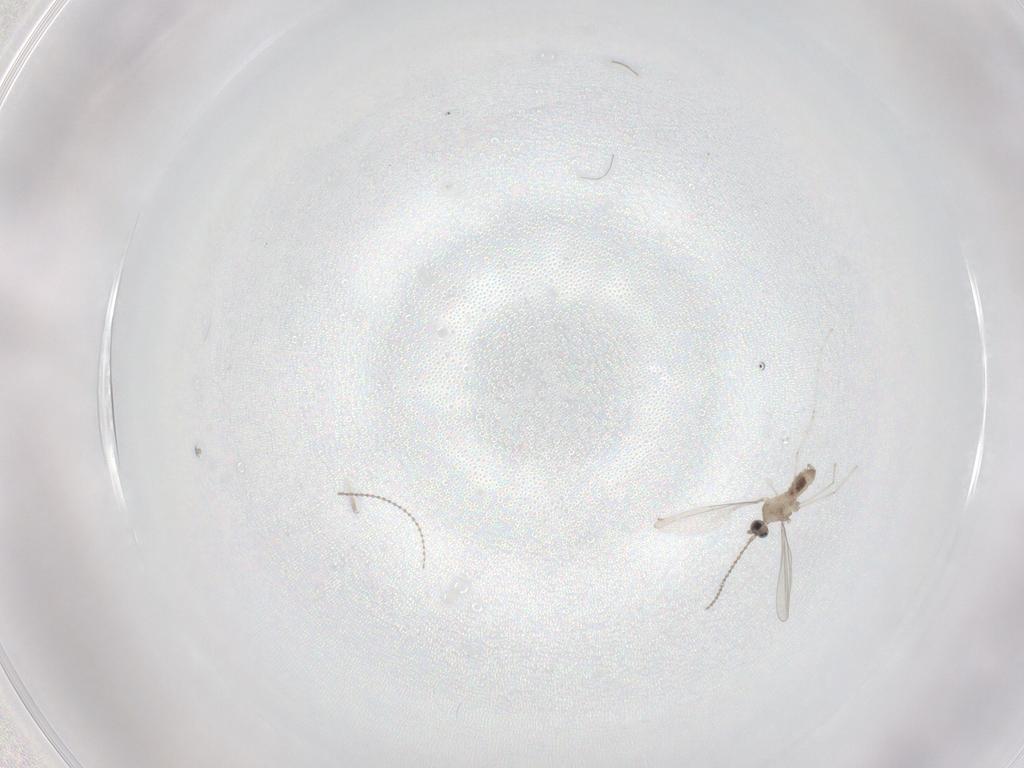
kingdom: Animalia
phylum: Arthropoda
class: Insecta
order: Diptera
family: Cecidomyiidae
